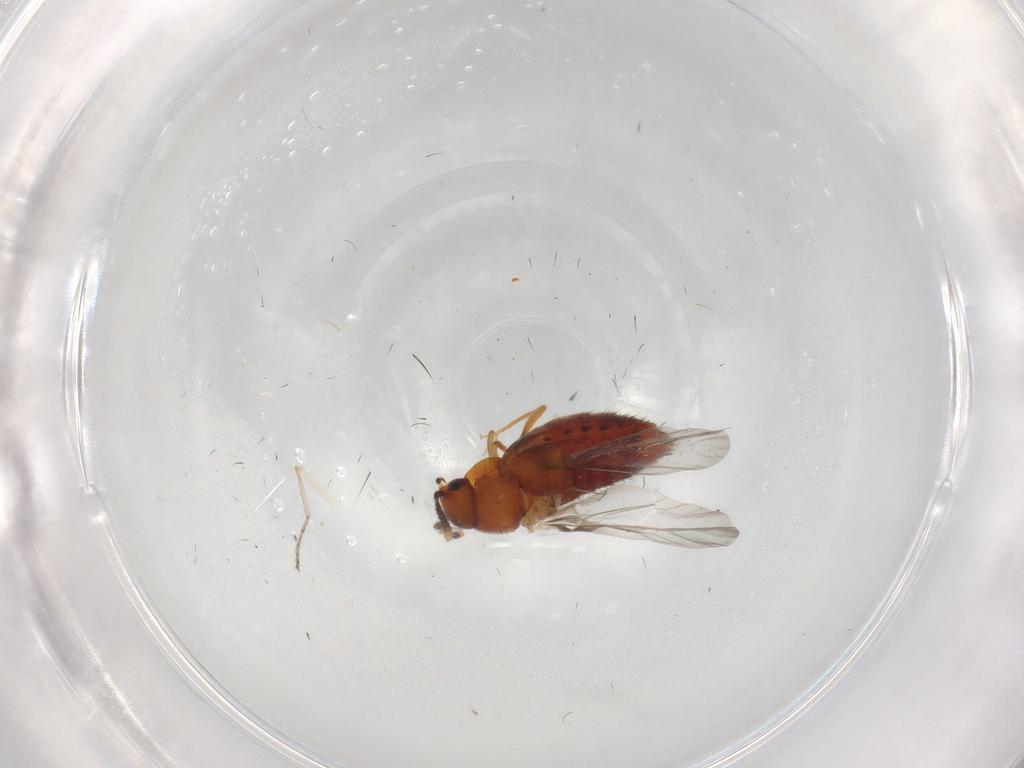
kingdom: Animalia
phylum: Arthropoda
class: Insecta
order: Coleoptera
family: Staphylinidae
